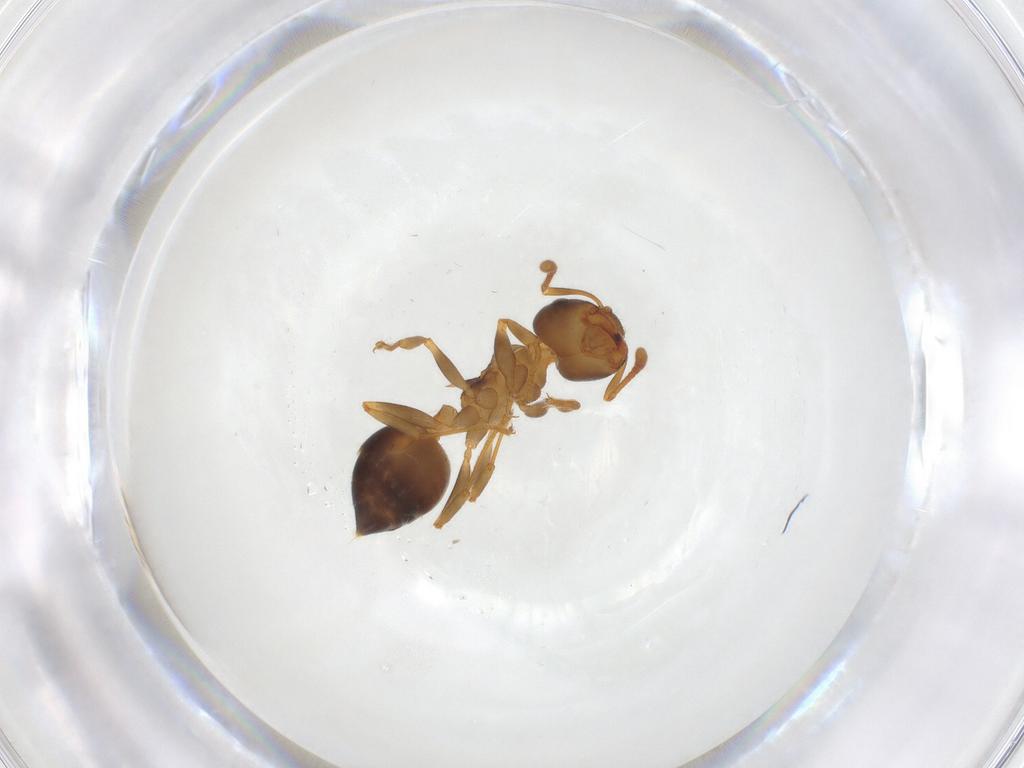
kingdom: Animalia
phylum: Arthropoda
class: Insecta
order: Hymenoptera
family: Formicidae
